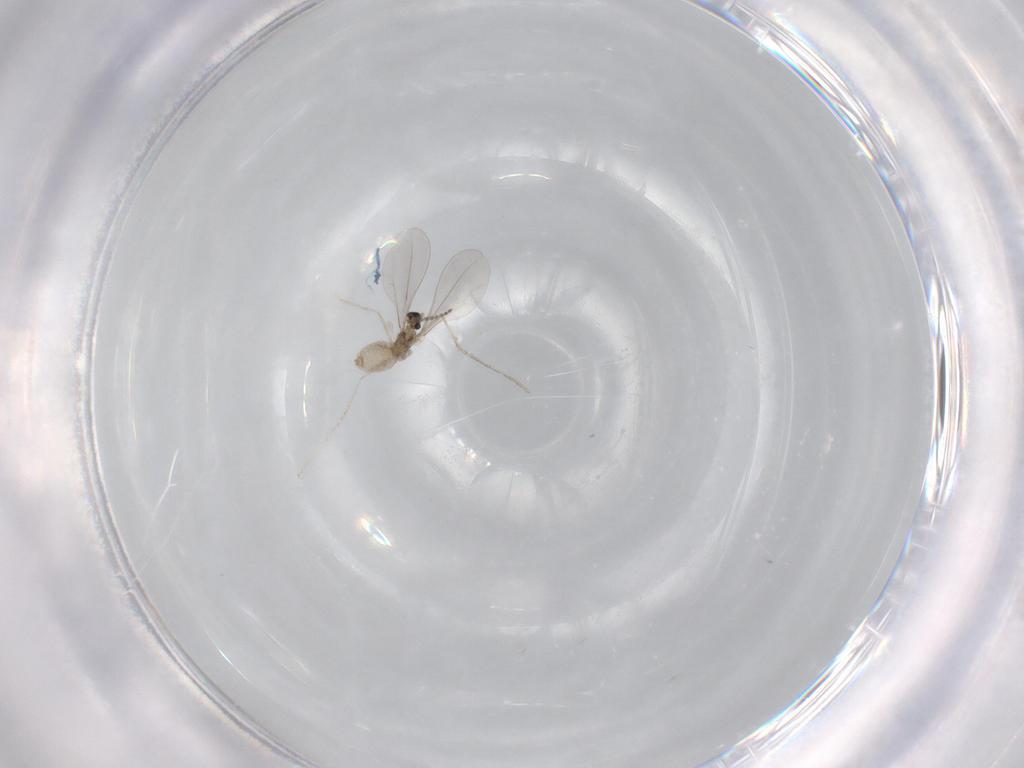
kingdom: Animalia
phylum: Arthropoda
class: Insecta
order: Diptera
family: Cecidomyiidae
